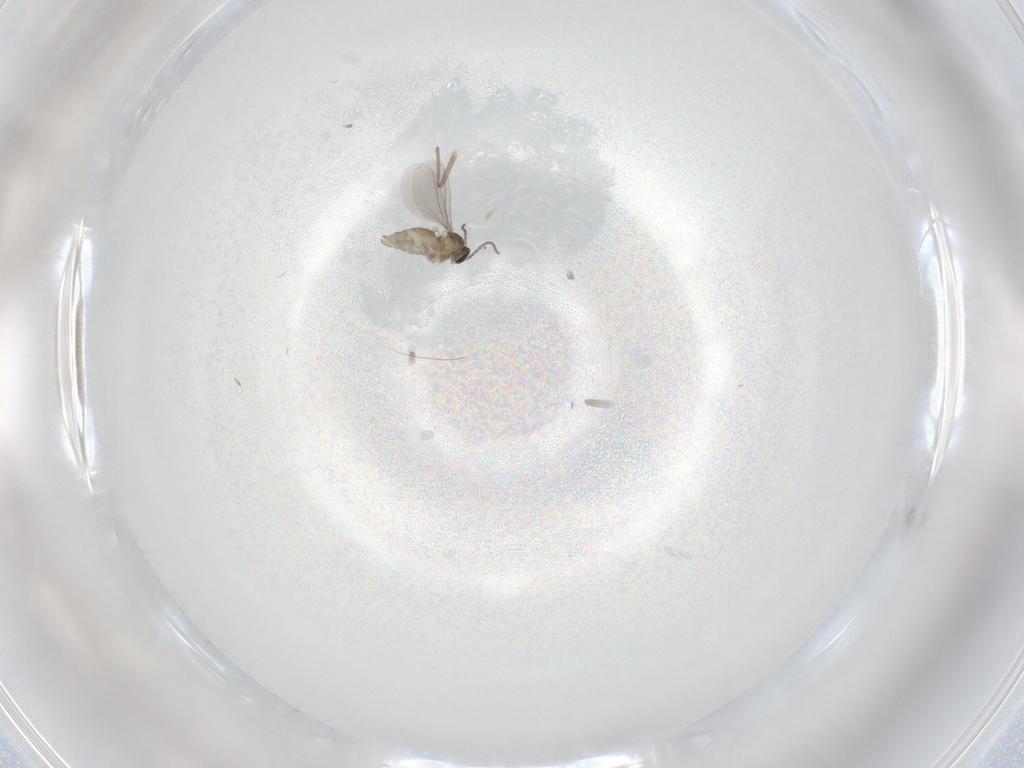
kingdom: Animalia
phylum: Arthropoda
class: Insecta
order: Diptera
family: Cecidomyiidae
